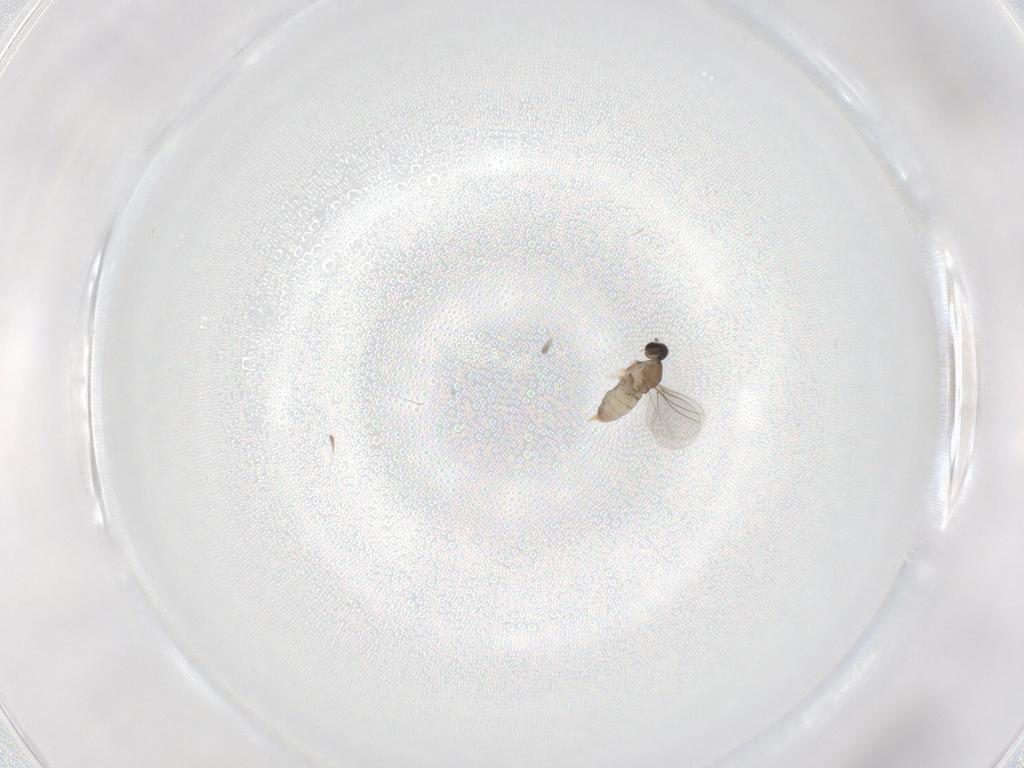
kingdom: Animalia
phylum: Arthropoda
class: Insecta
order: Diptera
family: Cecidomyiidae
